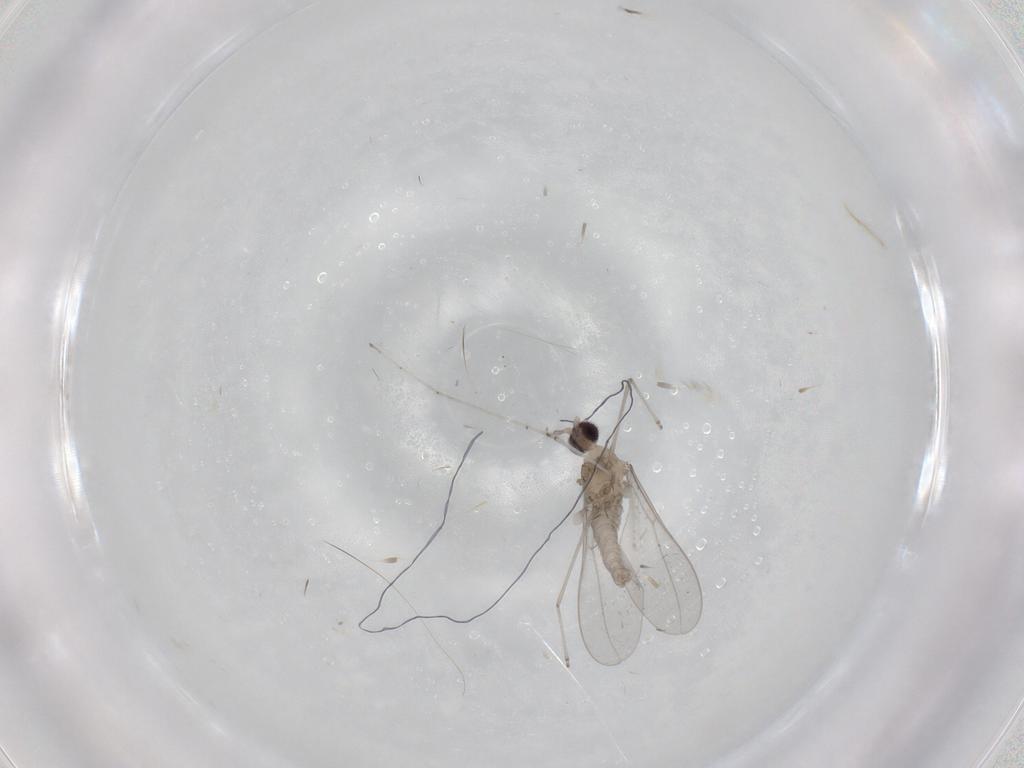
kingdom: Animalia
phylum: Arthropoda
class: Insecta
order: Diptera
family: Cecidomyiidae
